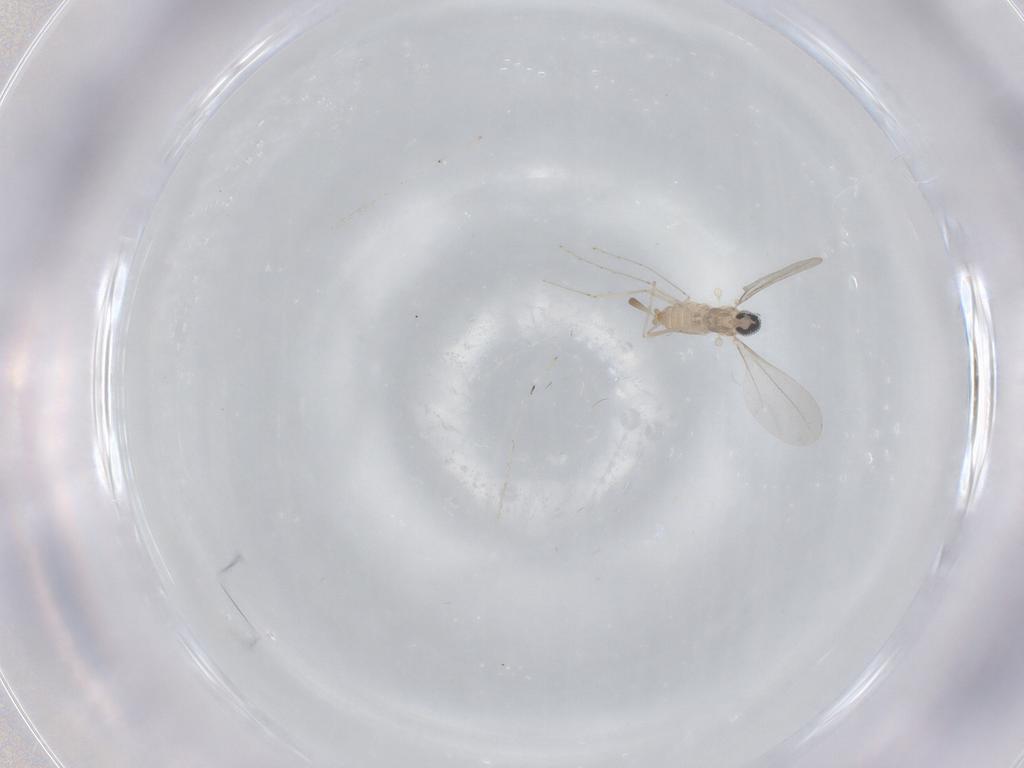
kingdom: Animalia
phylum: Arthropoda
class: Insecta
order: Diptera
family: Cecidomyiidae
